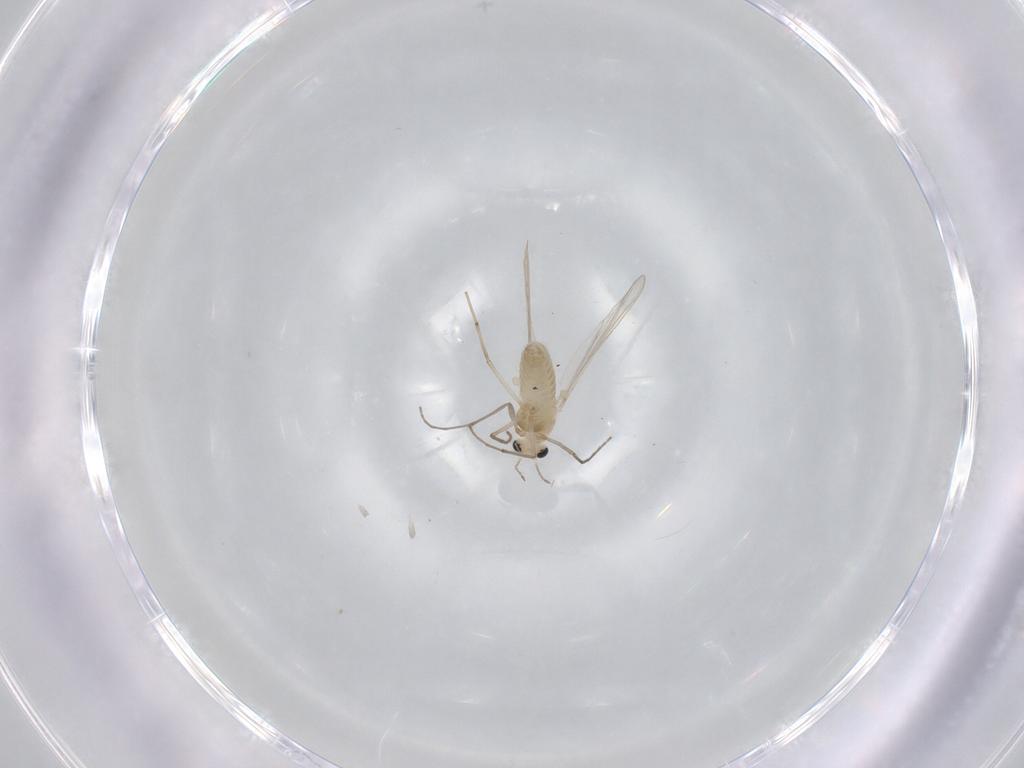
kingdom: Animalia
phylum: Arthropoda
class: Insecta
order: Diptera
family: Chironomidae
